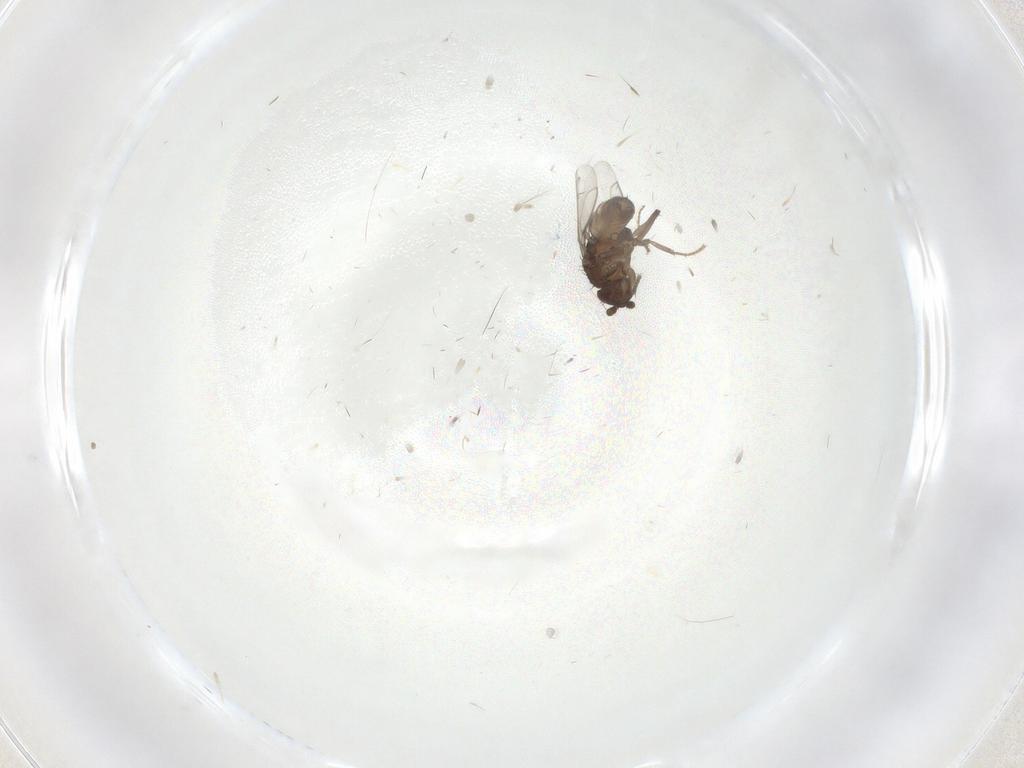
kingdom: Animalia
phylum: Arthropoda
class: Insecta
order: Diptera
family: Sphaeroceridae
